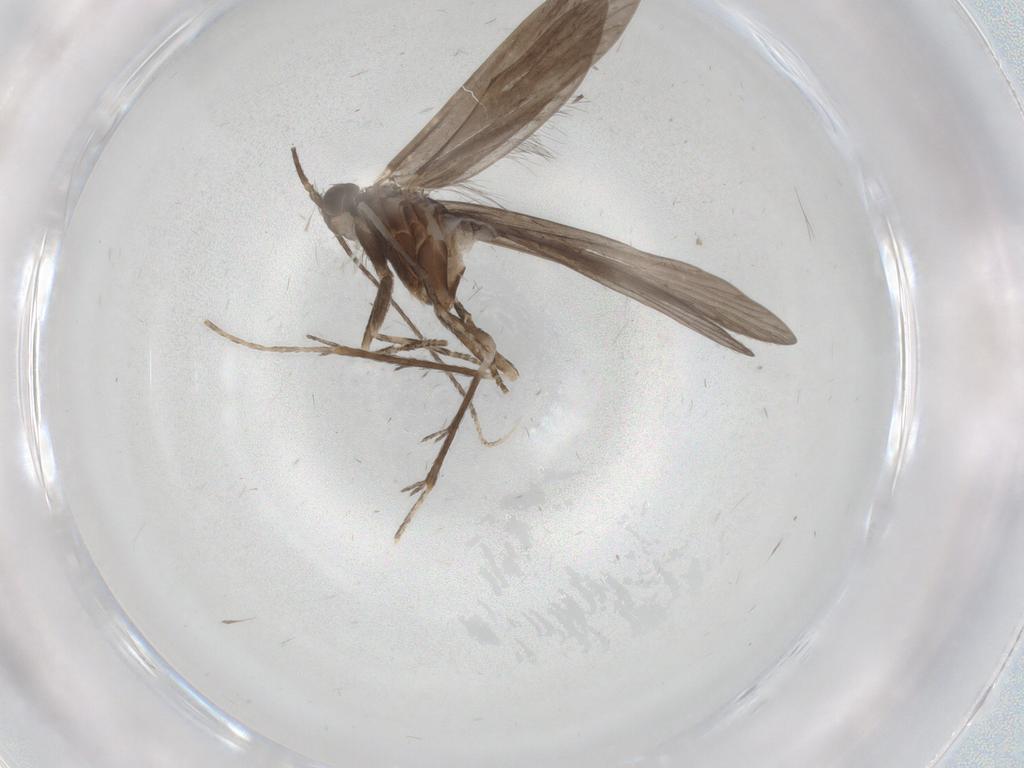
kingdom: Animalia
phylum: Arthropoda
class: Insecta
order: Trichoptera
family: Xiphocentronidae
